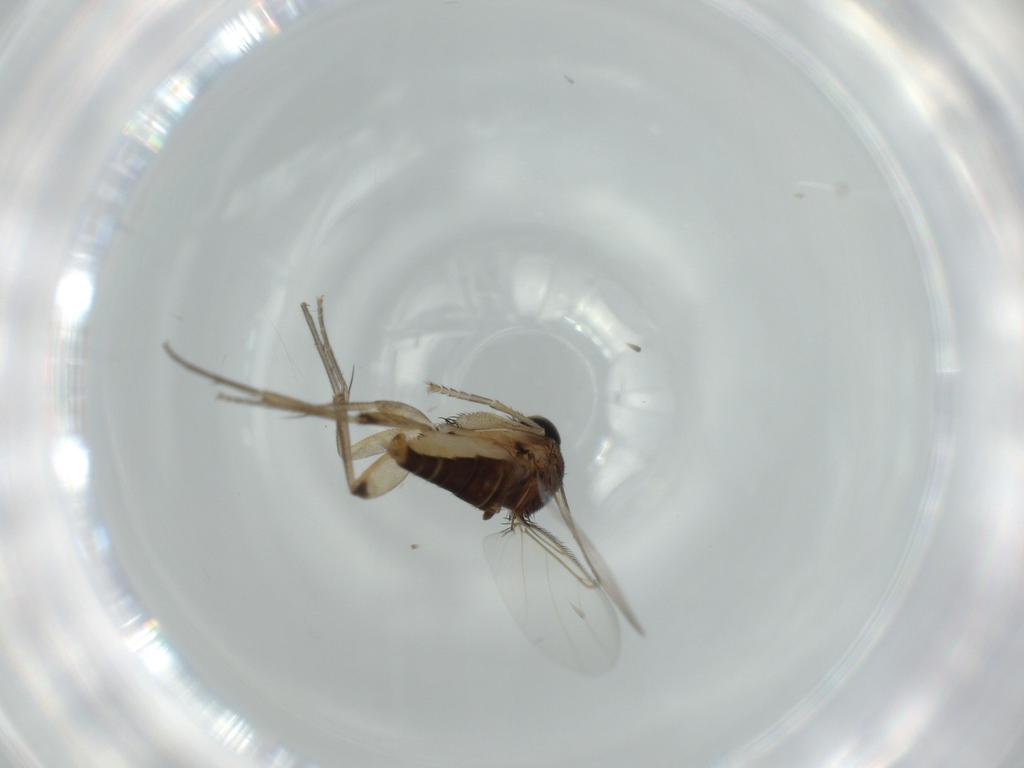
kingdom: Animalia
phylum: Arthropoda
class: Insecta
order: Diptera
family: Phoridae
